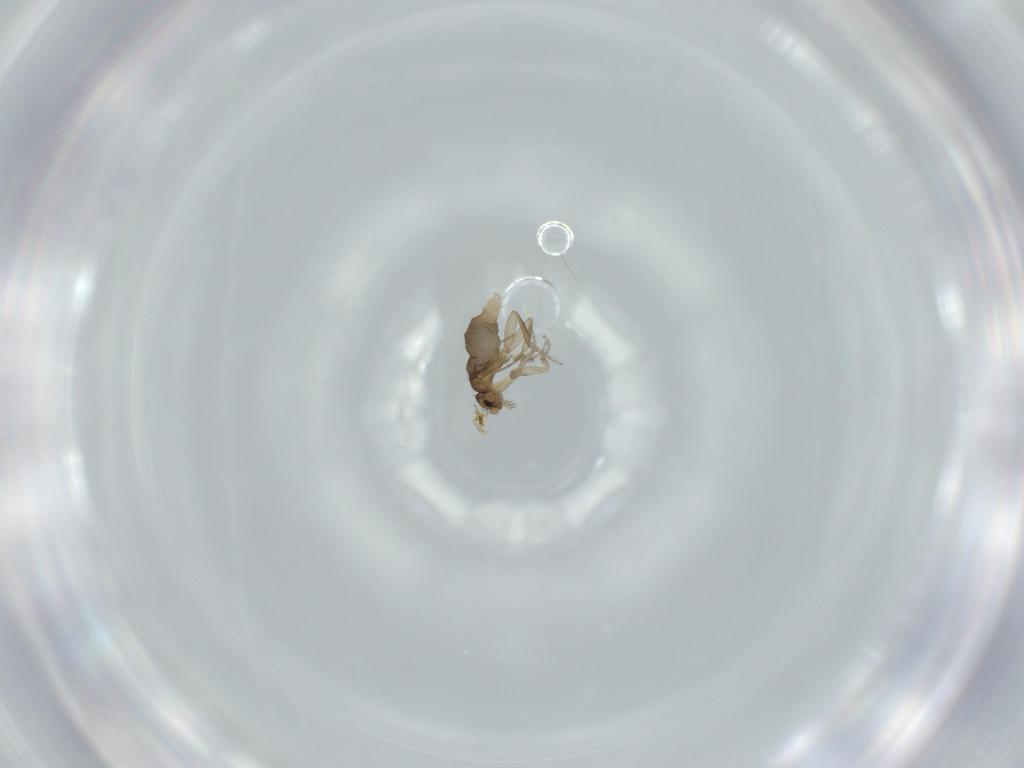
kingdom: Animalia
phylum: Arthropoda
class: Insecta
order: Diptera
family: Phoridae
